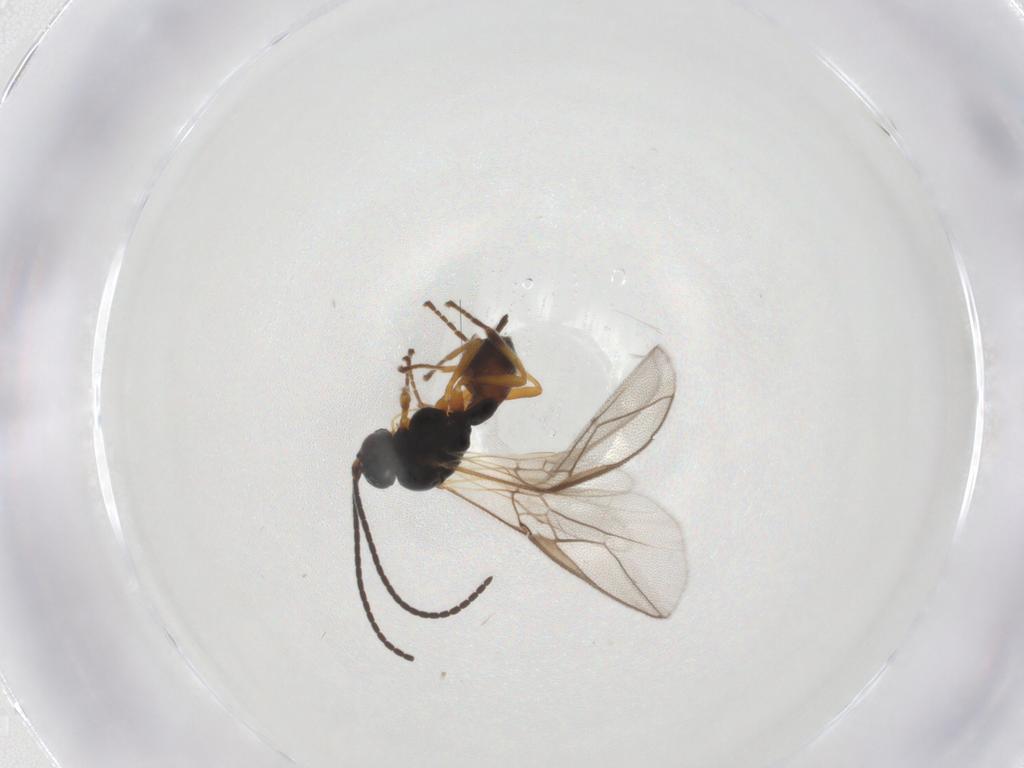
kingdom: Animalia
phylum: Arthropoda
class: Insecta
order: Hymenoptera
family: Braconidae
